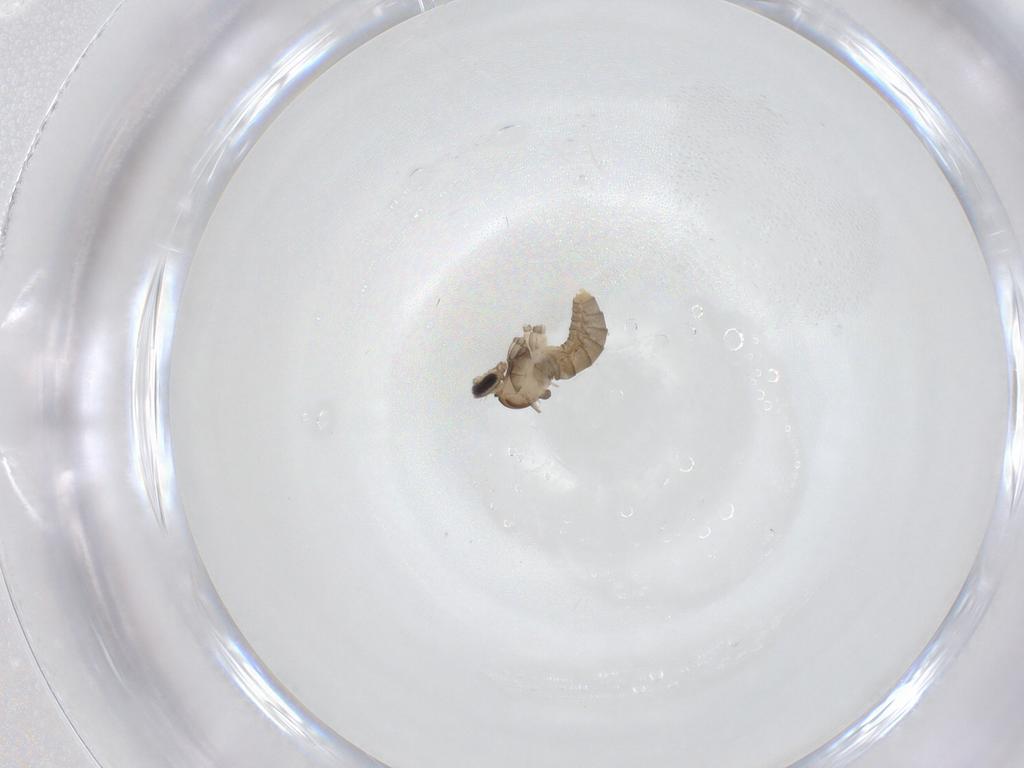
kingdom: Animalia
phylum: Arthropoda
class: Insecta
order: Diptera
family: Cecidomyiidae
